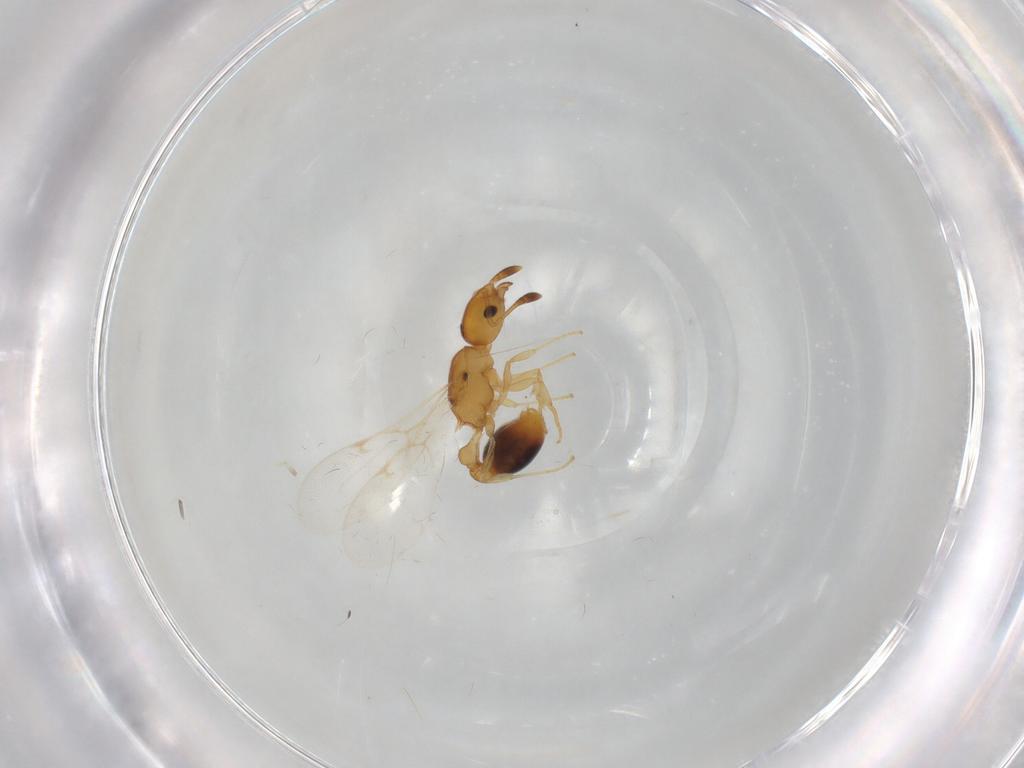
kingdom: Animalia
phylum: Arthropoda
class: Insecta
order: Hymenoptera
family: Formicidae
